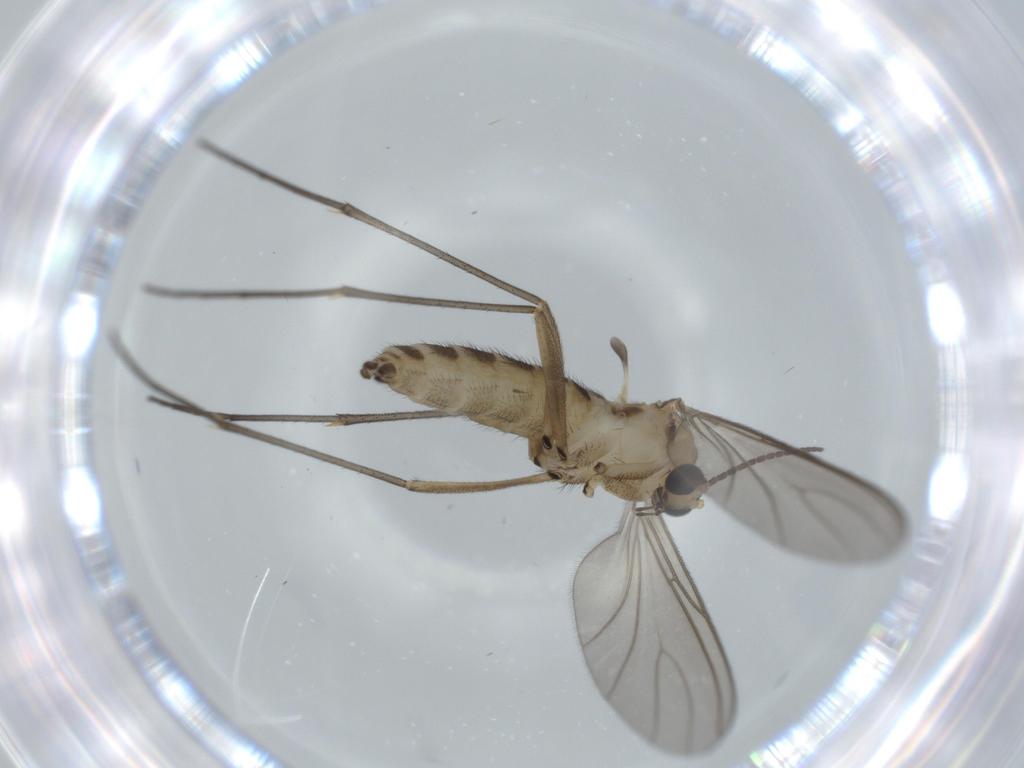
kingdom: Animalia
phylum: Arthropoda
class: Insecta
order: Diptera
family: Sciaridae
